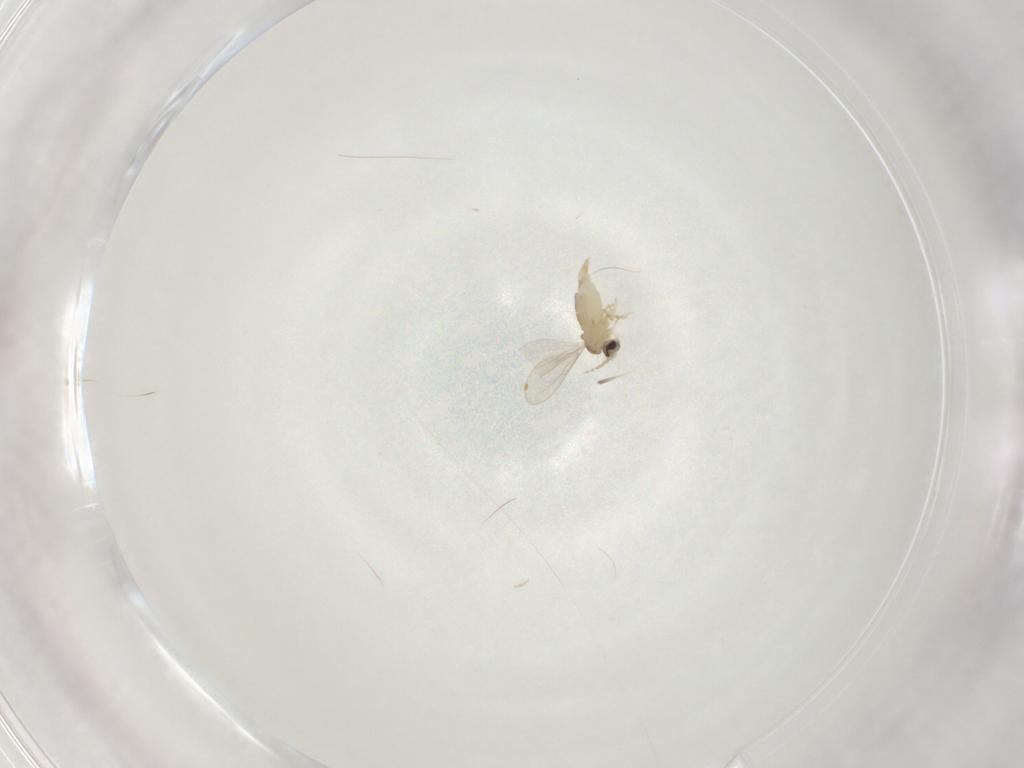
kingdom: Animalia
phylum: Arthropoda
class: Insecta
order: Diptera
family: Cecidomyiidae
